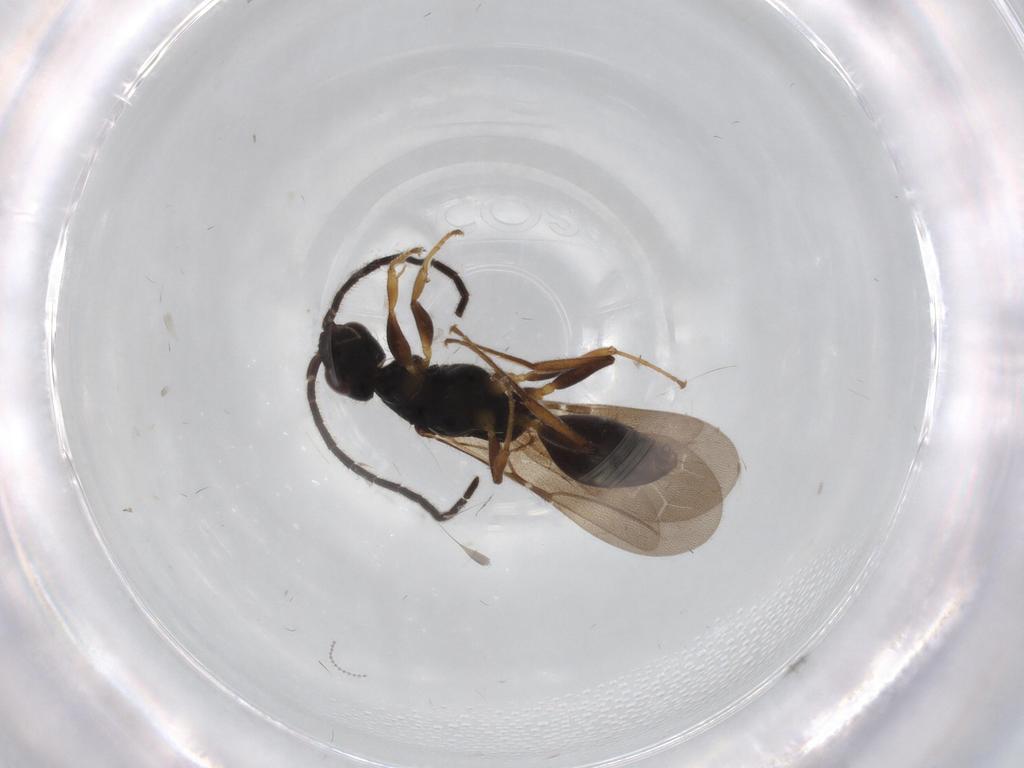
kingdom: Animalia
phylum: Arthropoda
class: Insecta
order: Hymenoptera
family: Bethylidae
